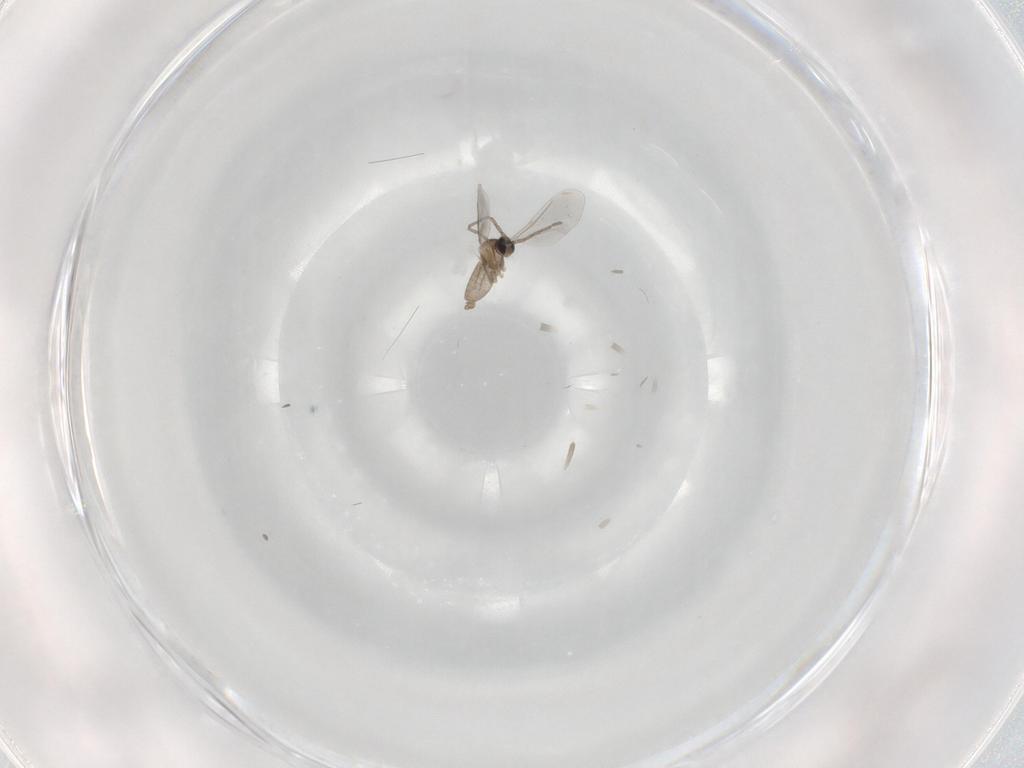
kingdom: Animalia
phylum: Arthropoda
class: Insecta
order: Diptera
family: Cecidomyiidae
